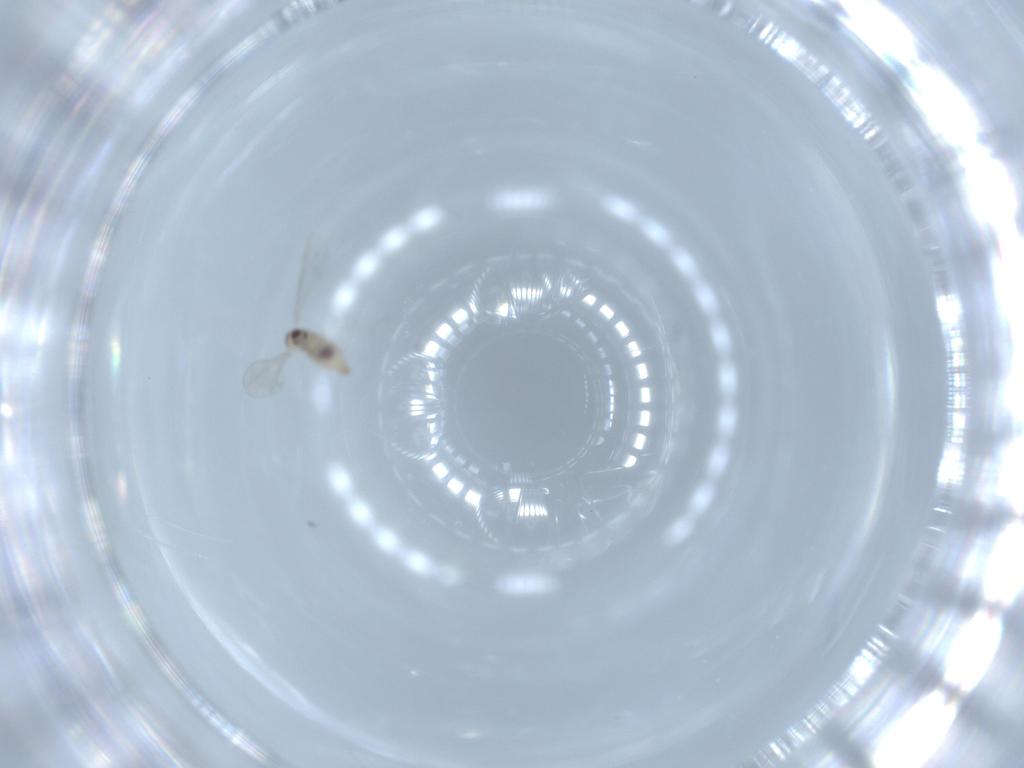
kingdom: Animalia
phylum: Arthropoda
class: Insecta
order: Diptera
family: Cecidomyiidae
